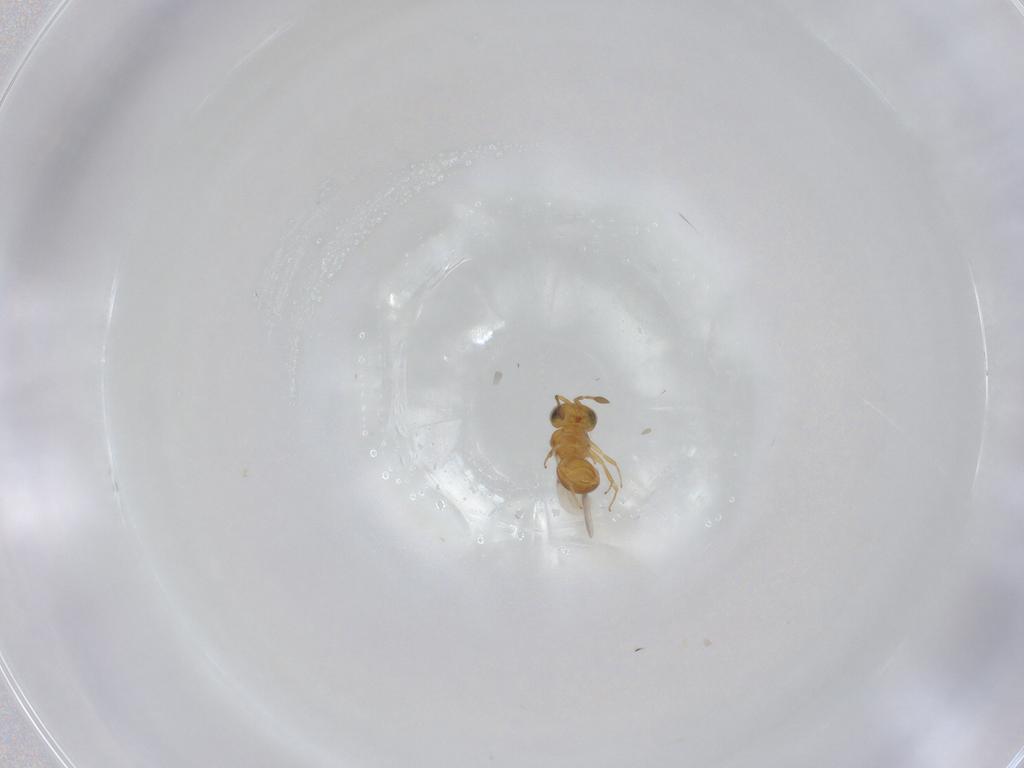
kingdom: Animalia
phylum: Arthropoda
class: Insecta
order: Hymenoptera
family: Scelionidae
